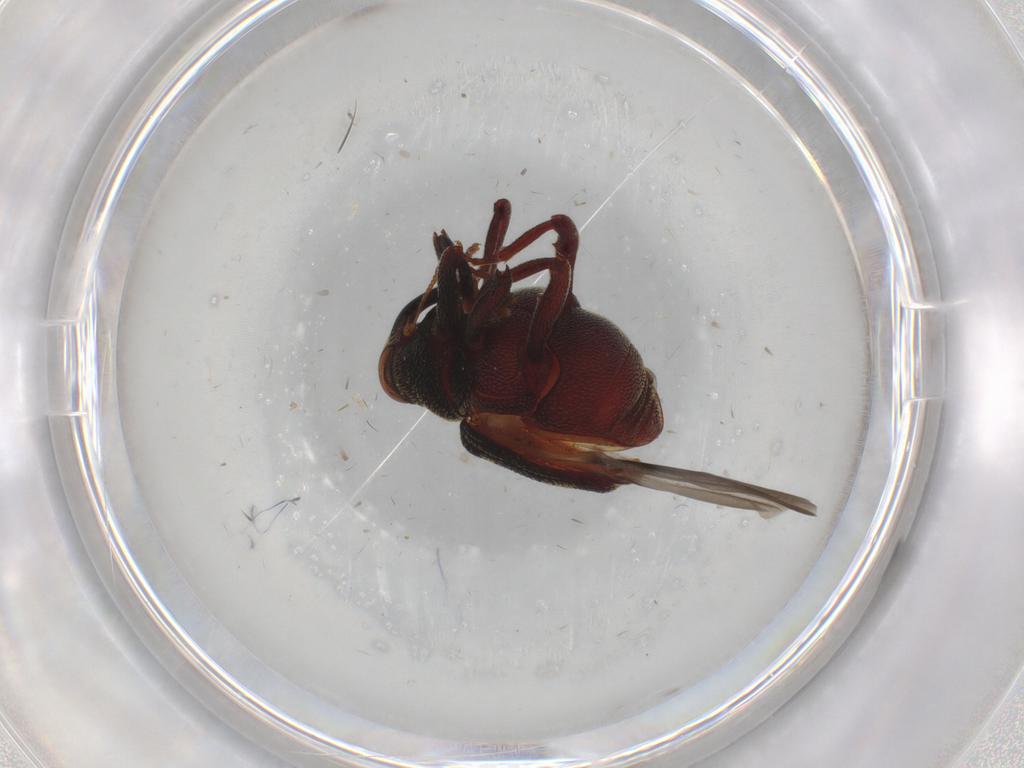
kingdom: Animalia
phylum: Arthropoda
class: Insecta
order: Coleoptera
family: Curculionidae
